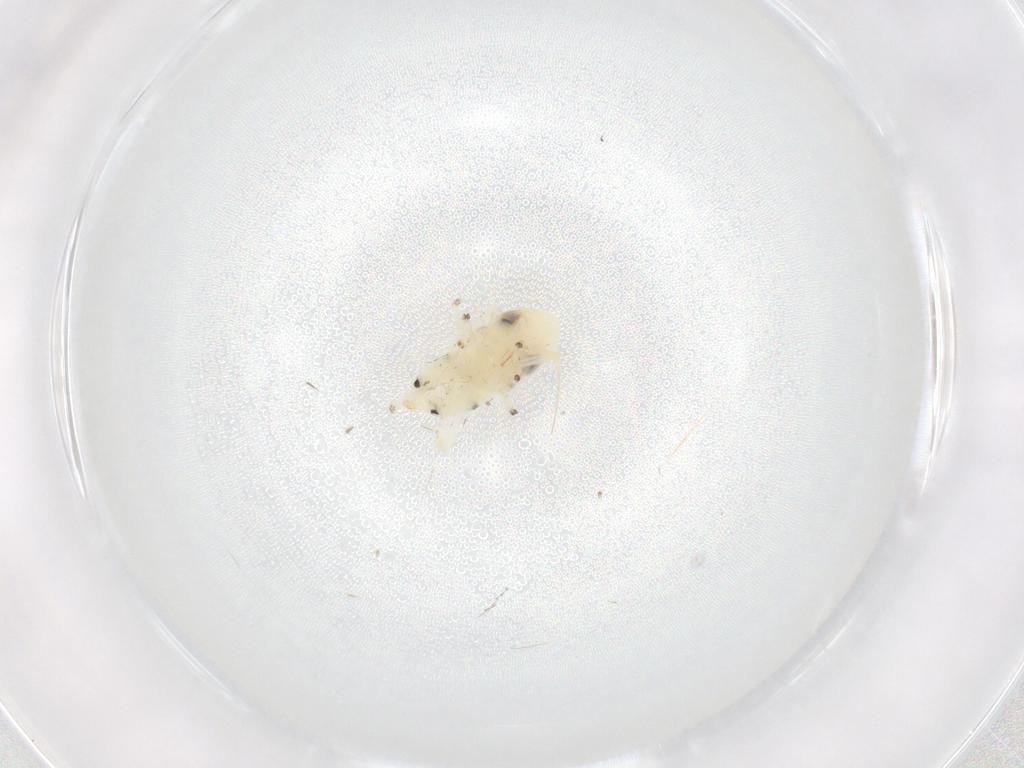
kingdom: Animalia
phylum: Arthropoda
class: Insecta
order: Hemiptera
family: Cicadellidae
